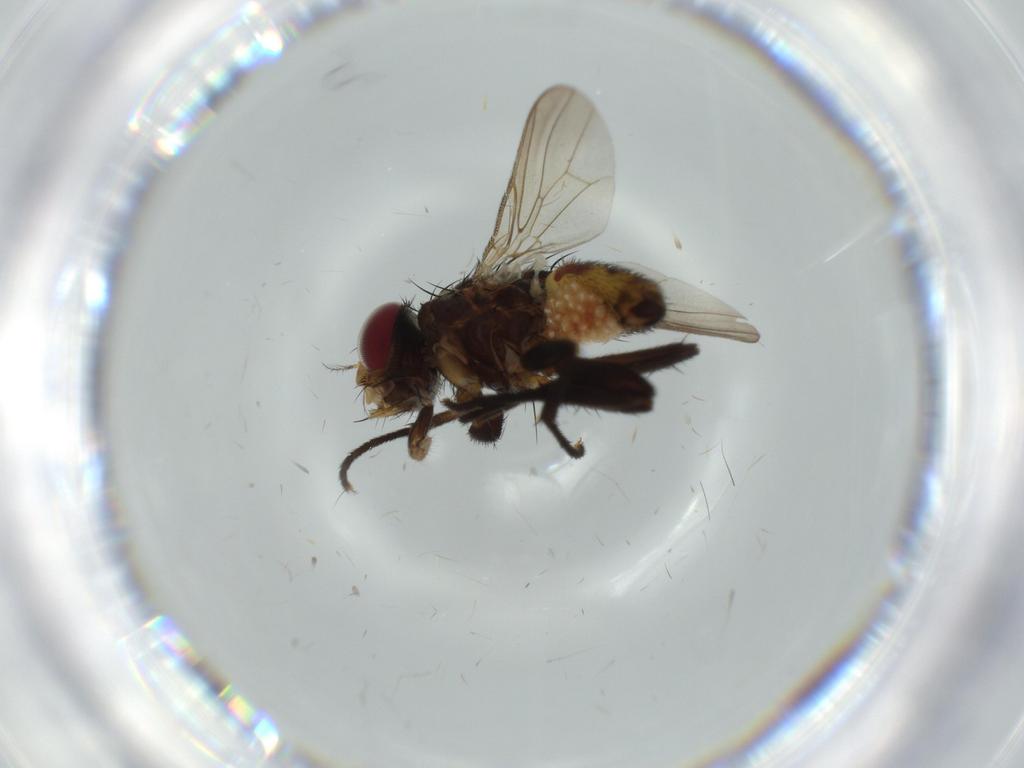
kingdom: Animalia
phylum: Arthropoda
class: Insecta
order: Diptera
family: Anthomyiidae
